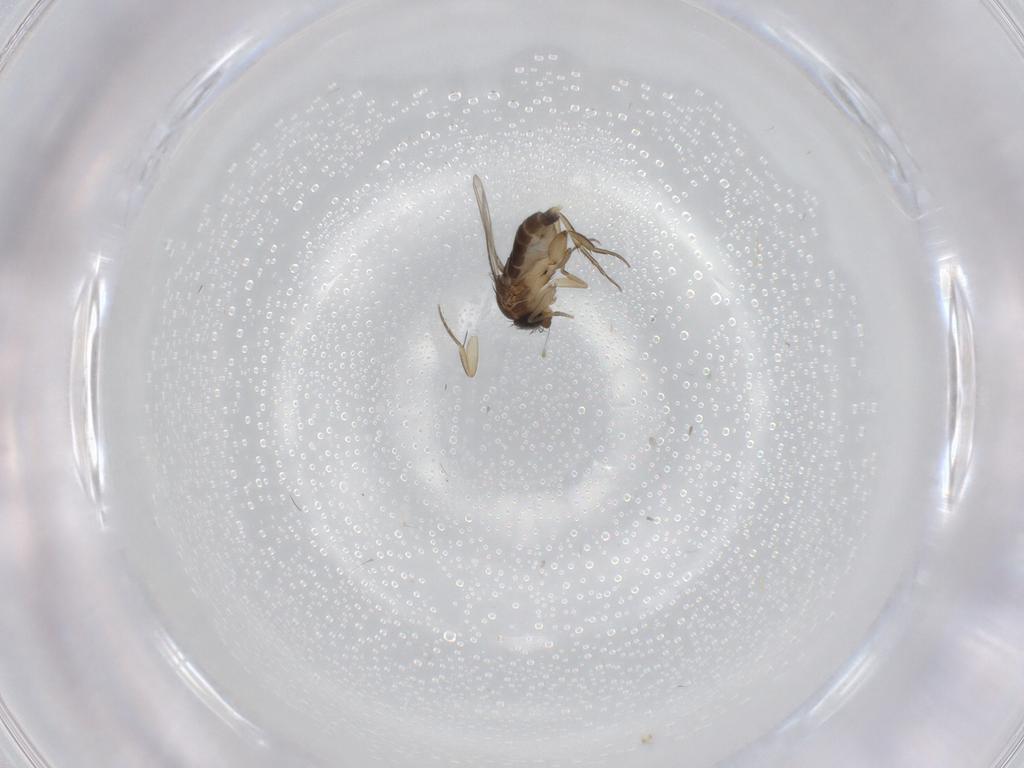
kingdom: Animalia
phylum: Arthropoda
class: Insecta
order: Diptera
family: Phoridae
